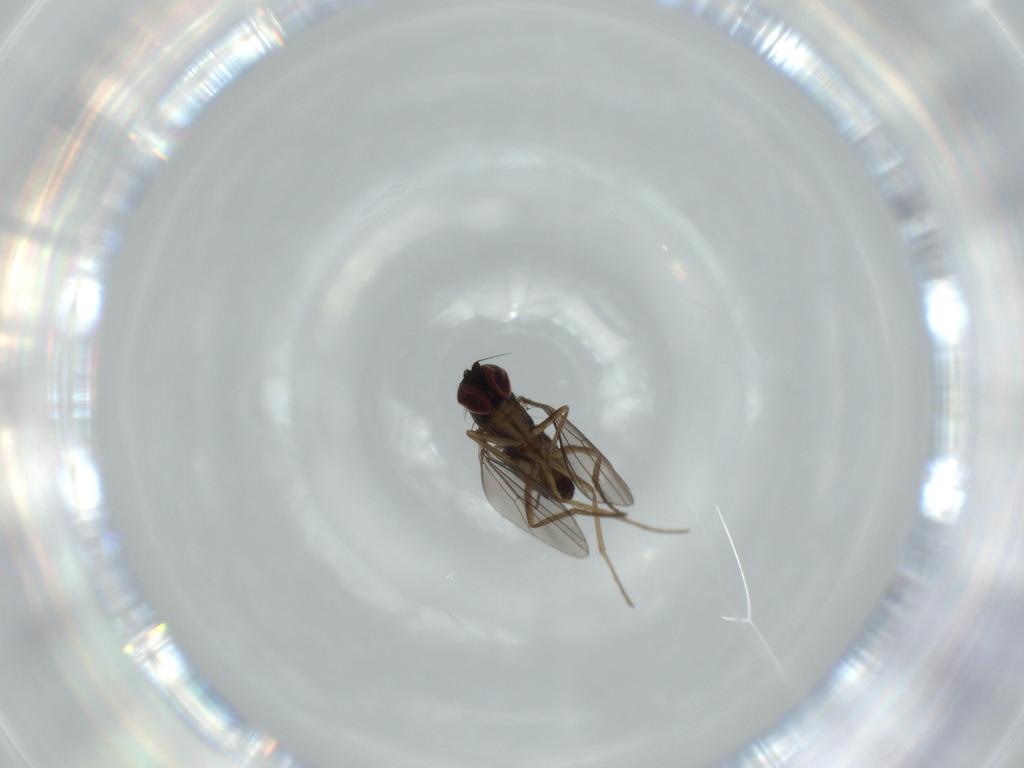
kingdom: Animalia
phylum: Arthropoda
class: Insecta
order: Diptera
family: Dolichopodidae
